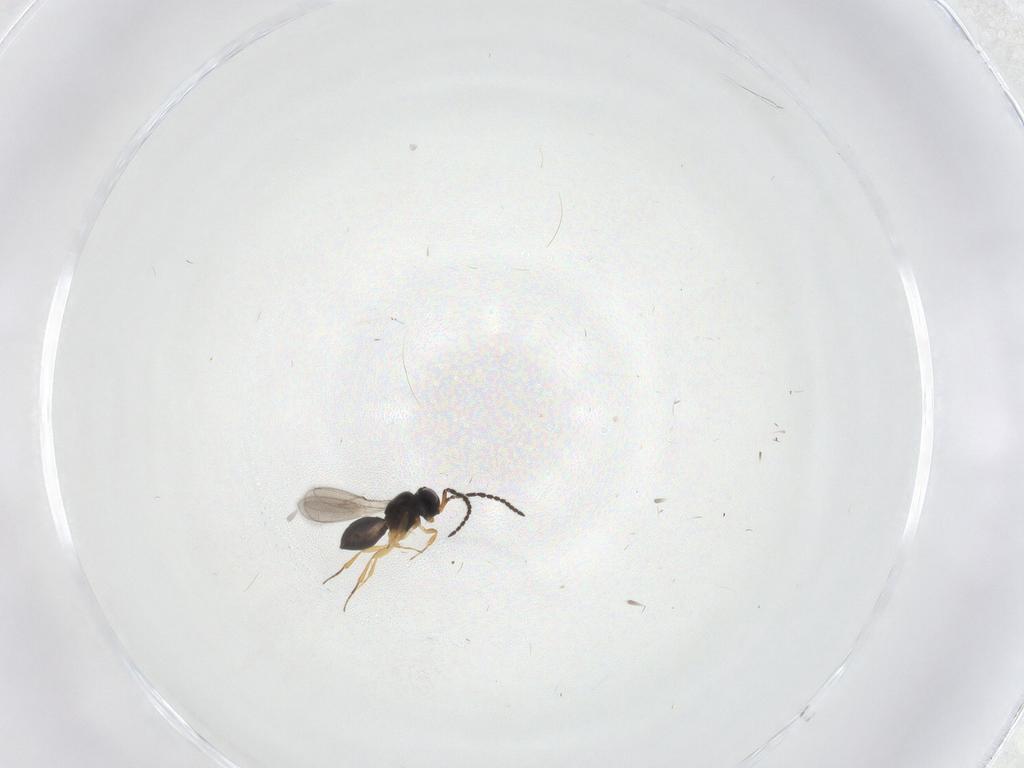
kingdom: Animalia
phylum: Arthropoda
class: Insecta
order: Hymenoptera
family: Scelionidae
